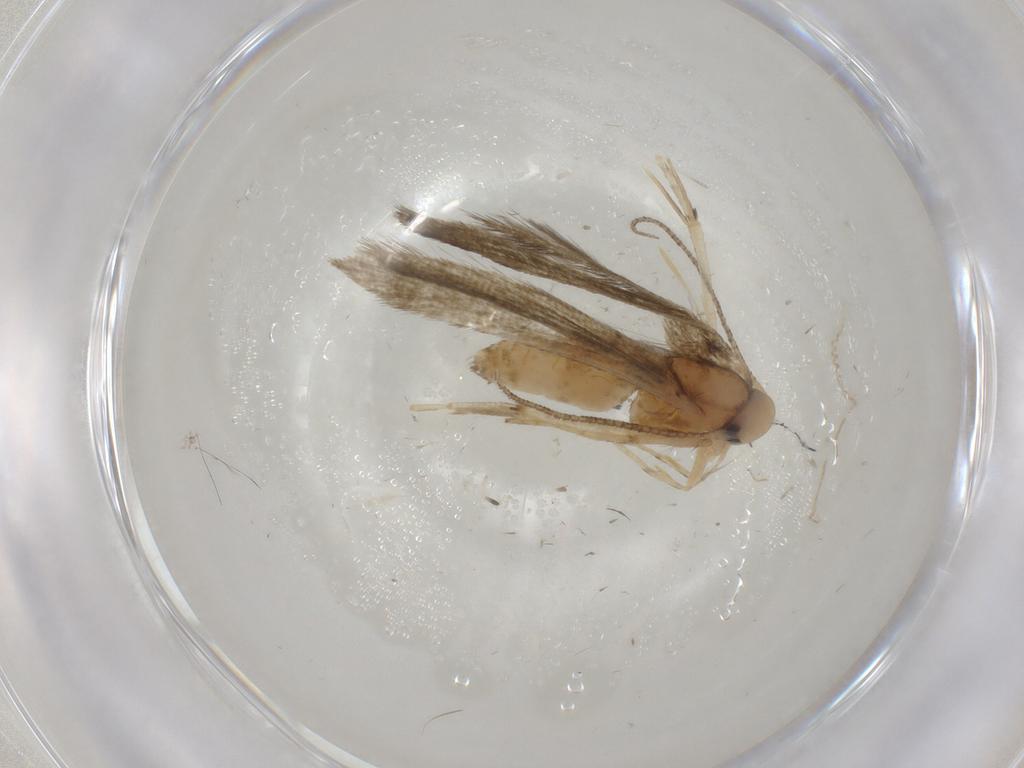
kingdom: Animalia
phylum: Arthropoda
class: Insecta
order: Lepidoptera
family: Stathmopodidae
